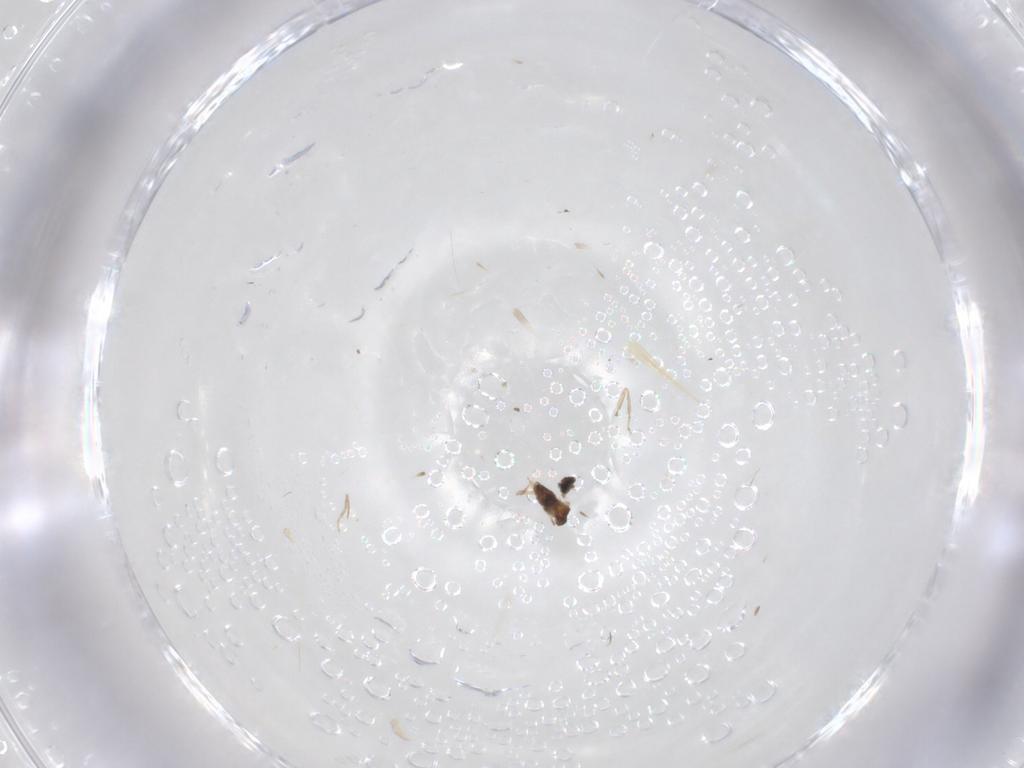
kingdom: Animalia
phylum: Arthropoda
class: Insecta
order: Diptera
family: Cecidomyiidae
